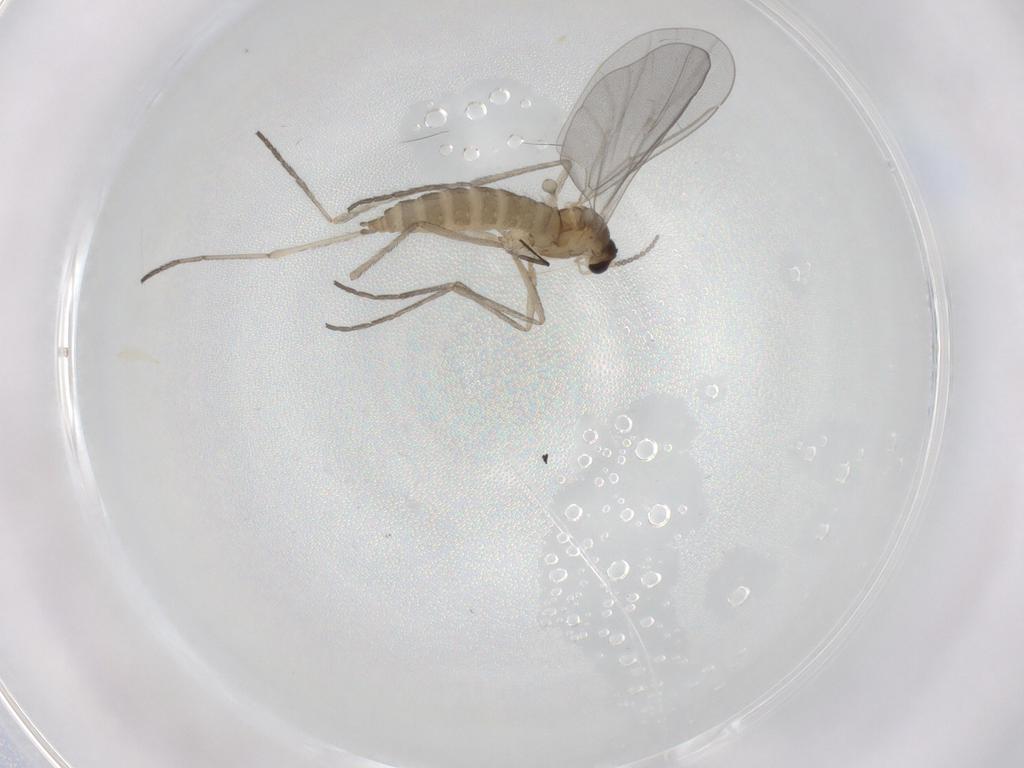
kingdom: Animalia
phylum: Arthropoda
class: Insecta
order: Diptera
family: Cecidomyiidae
